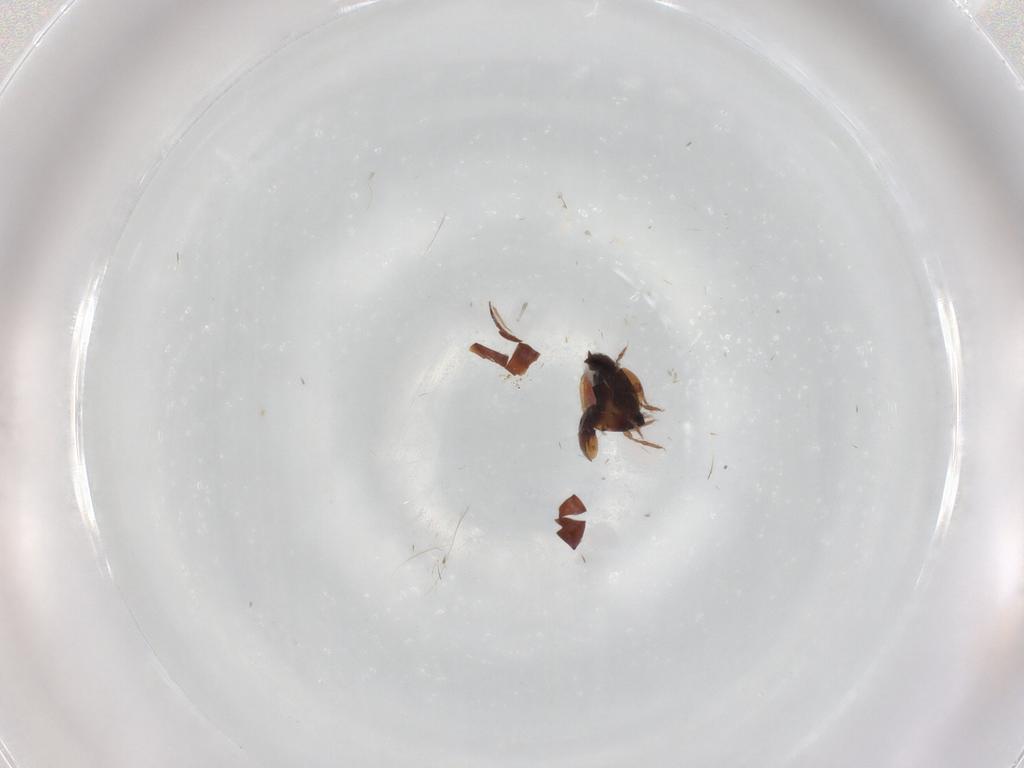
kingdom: Animalia
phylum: Arthropoda
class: Arachnida
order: Sarcoptiformes
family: Ceratozetidae
